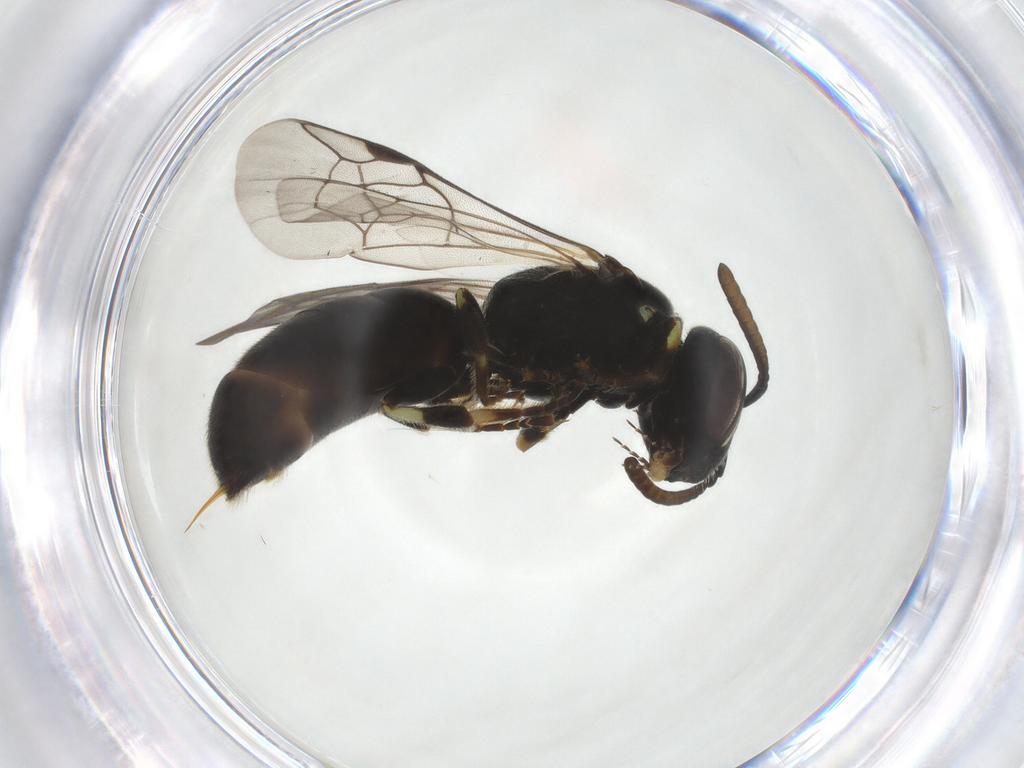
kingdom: Animalia
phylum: Arthropoda
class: Insecta
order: Hymenoptera
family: Colletidae
